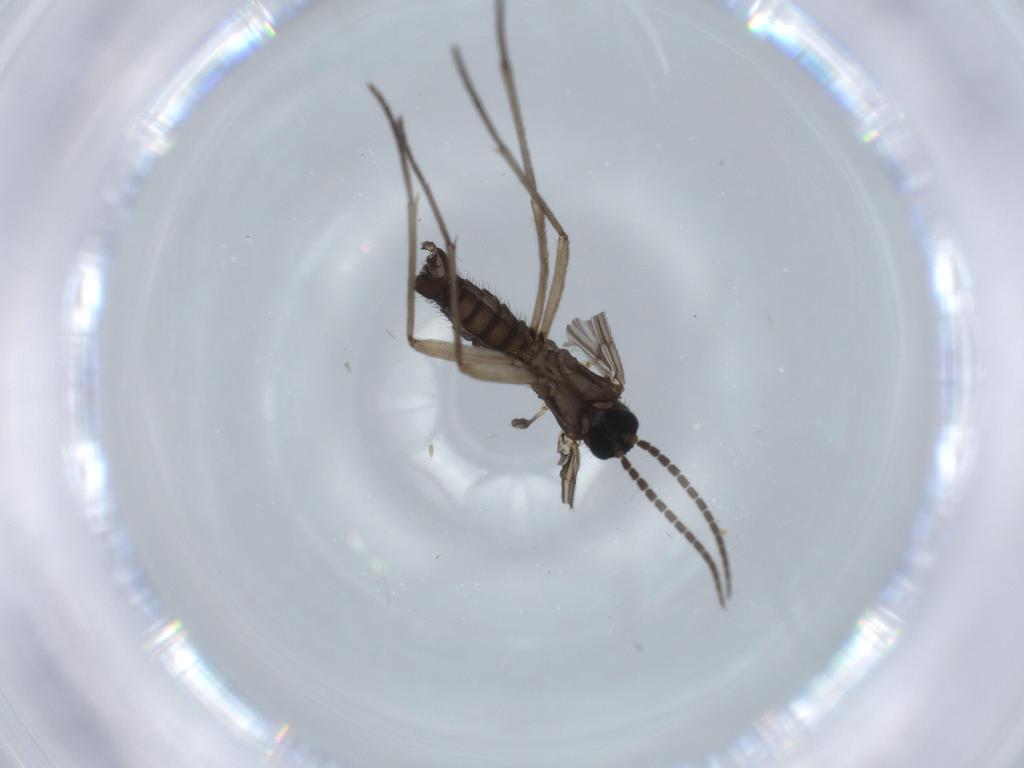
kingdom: Animalia
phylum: Arthropoda
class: Insecta
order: Diptera
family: Sciaridae
